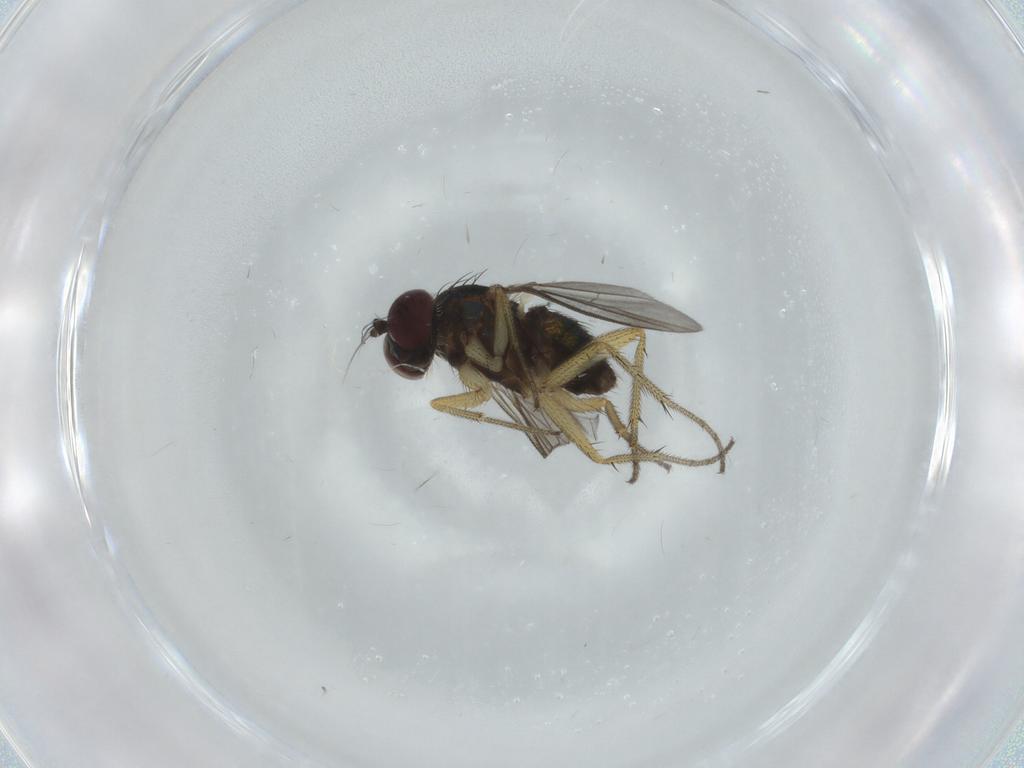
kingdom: Animalia
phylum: Arthropoda
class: Insecta
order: Diptera
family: Dolichopodidae
